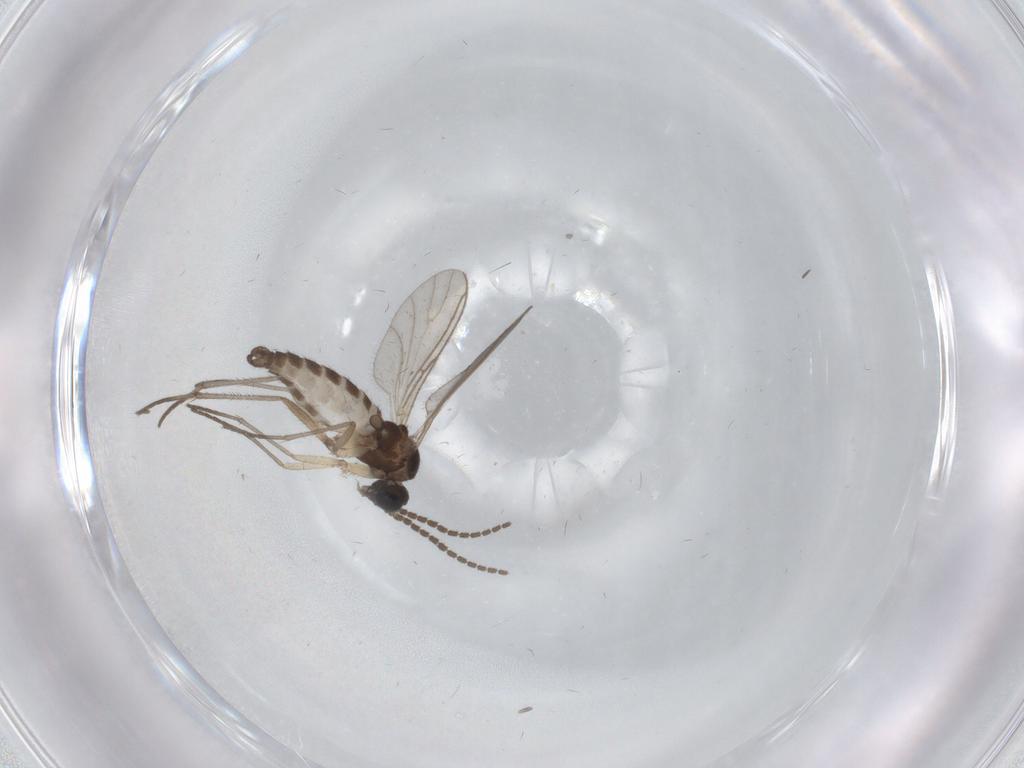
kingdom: Animalia
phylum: Arthropoda
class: Insecta
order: Diptera
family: Sciaridae
